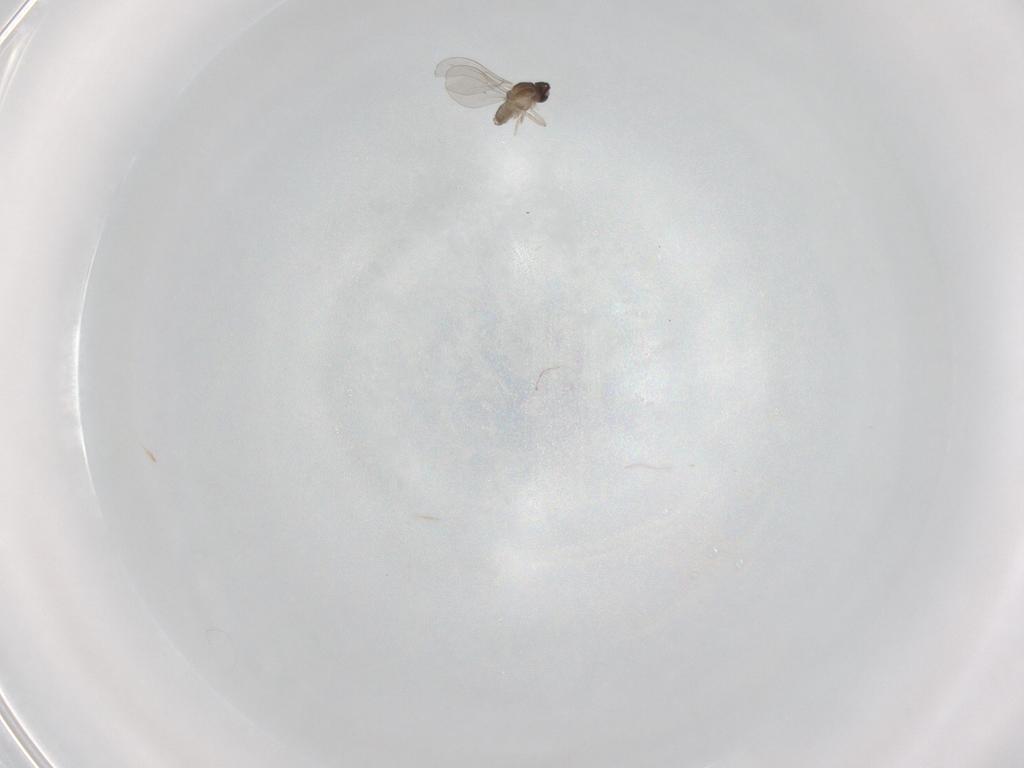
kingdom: Animalia
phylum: Arthropoda
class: Insecta
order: Diptera
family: Cecidomyiidae
